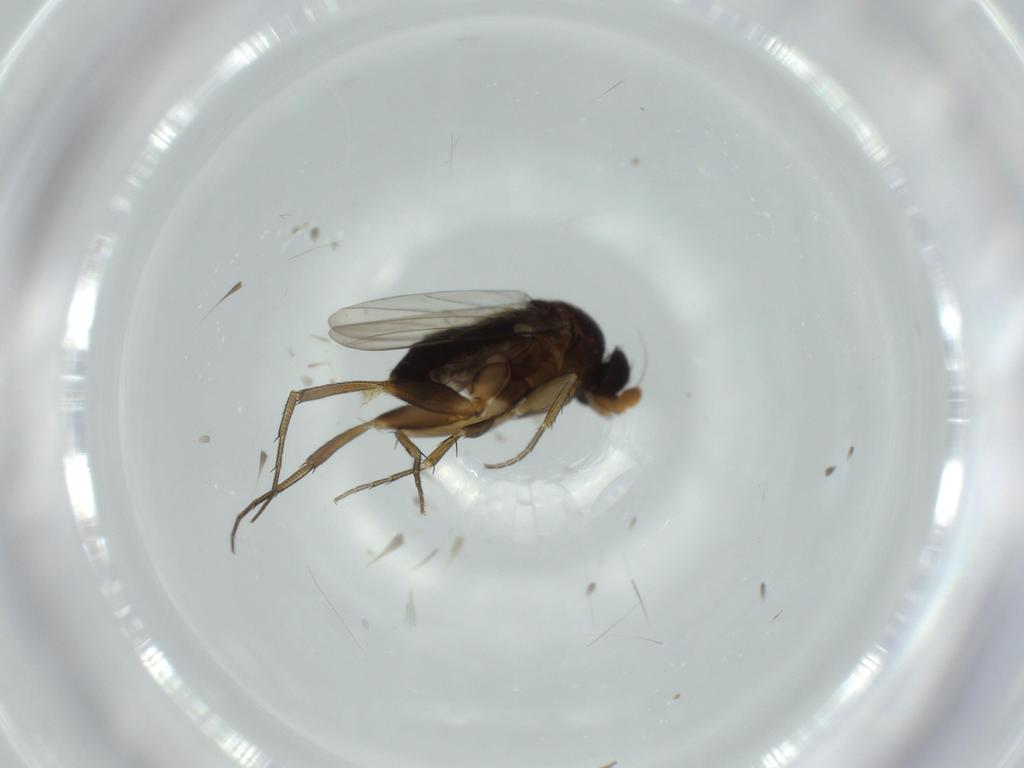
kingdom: Animalia
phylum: Arthropoda
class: Insecta
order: Diptera
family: Phoridae
